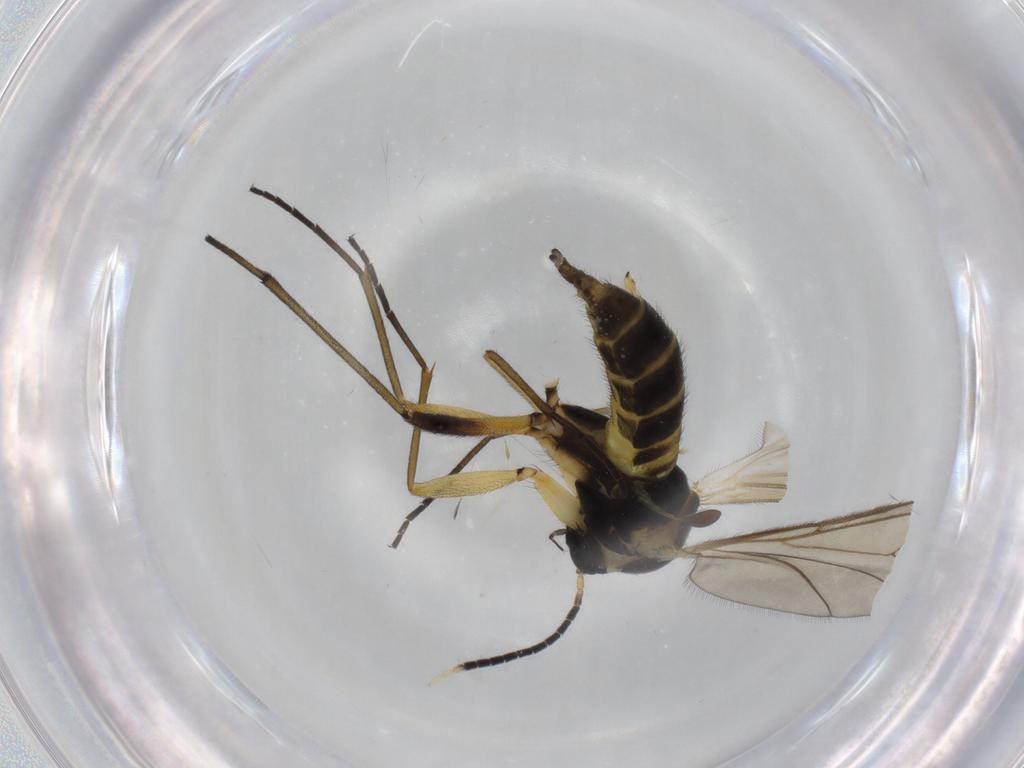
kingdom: Animalia
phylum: Arthropoda
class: Insecta
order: Diptera
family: Sciaridae
